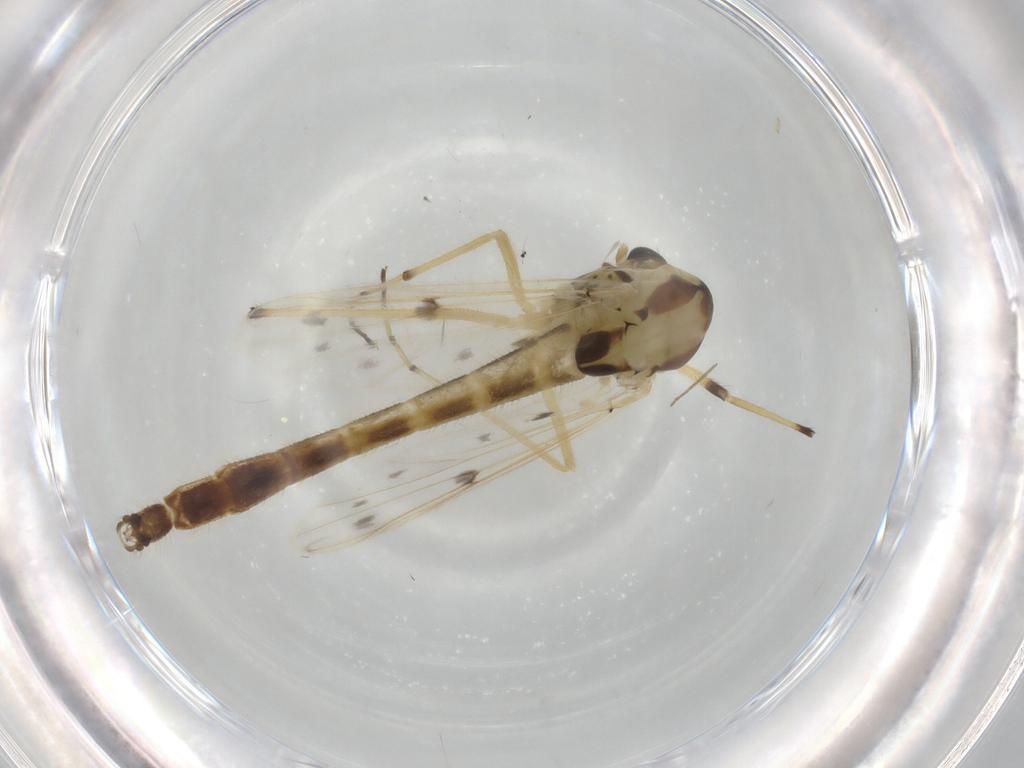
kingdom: Animalia
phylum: Arthropoda
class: Insecta
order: Diptera
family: Chironomidae
